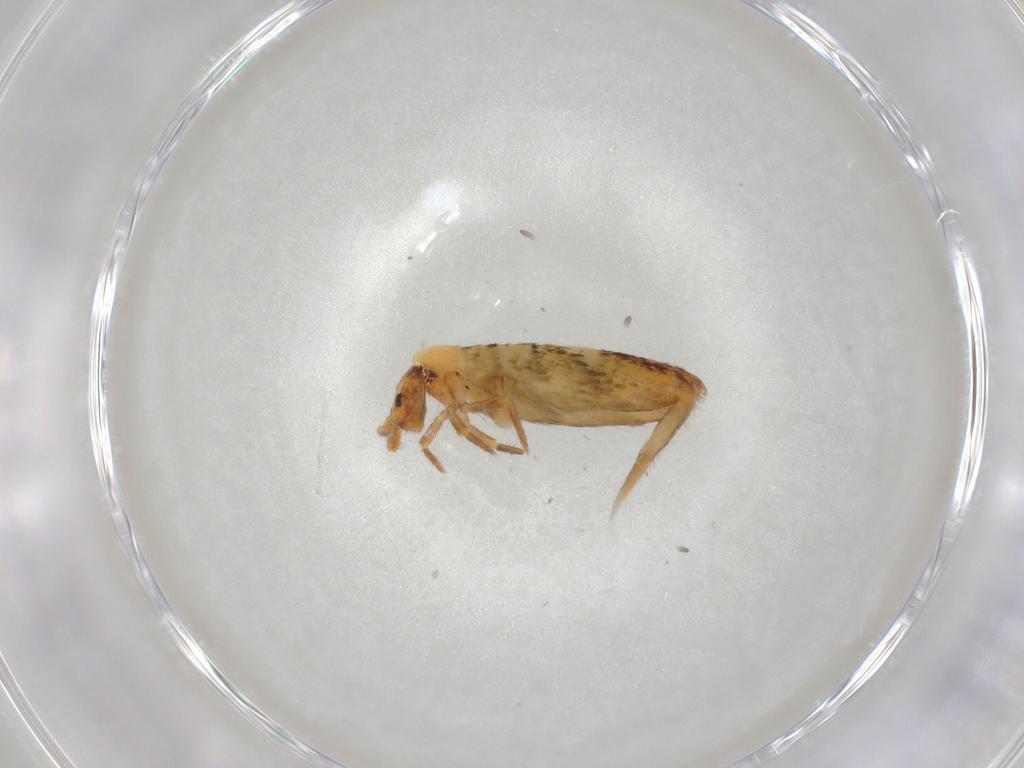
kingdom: Animalia
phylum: Arthropoda
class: Collembola
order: Entomobryomorpha
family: Entomobryidae
